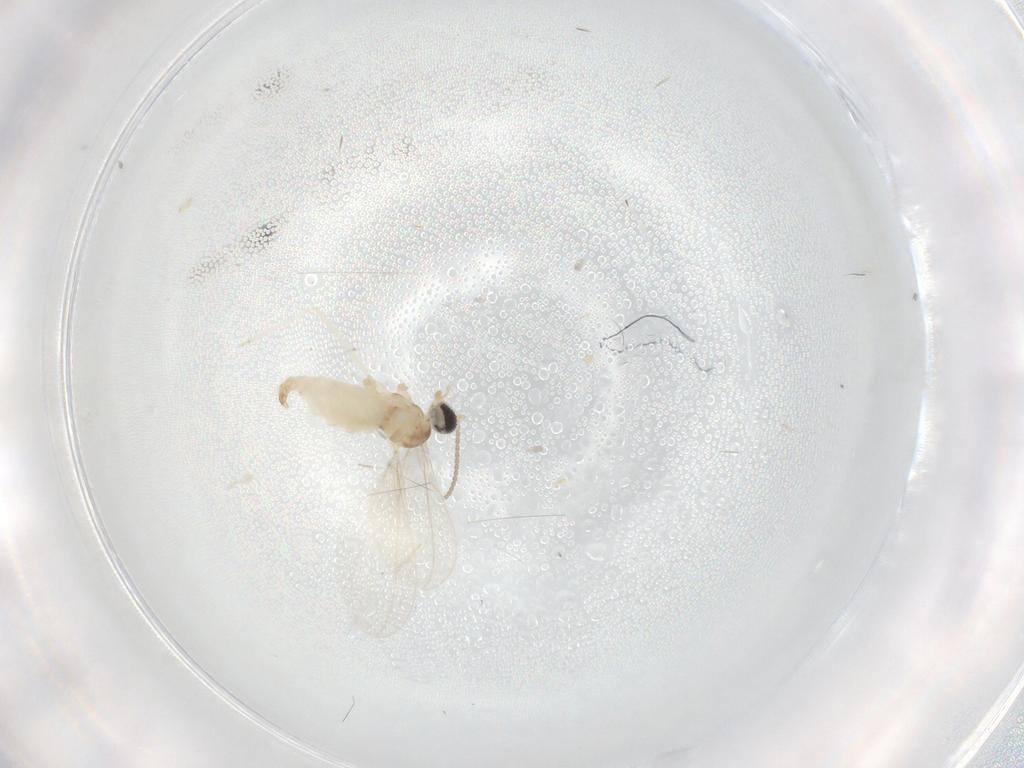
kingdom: Animalia
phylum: Arthropoda
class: Insecta
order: Diptera
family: Cecidomyiidae
